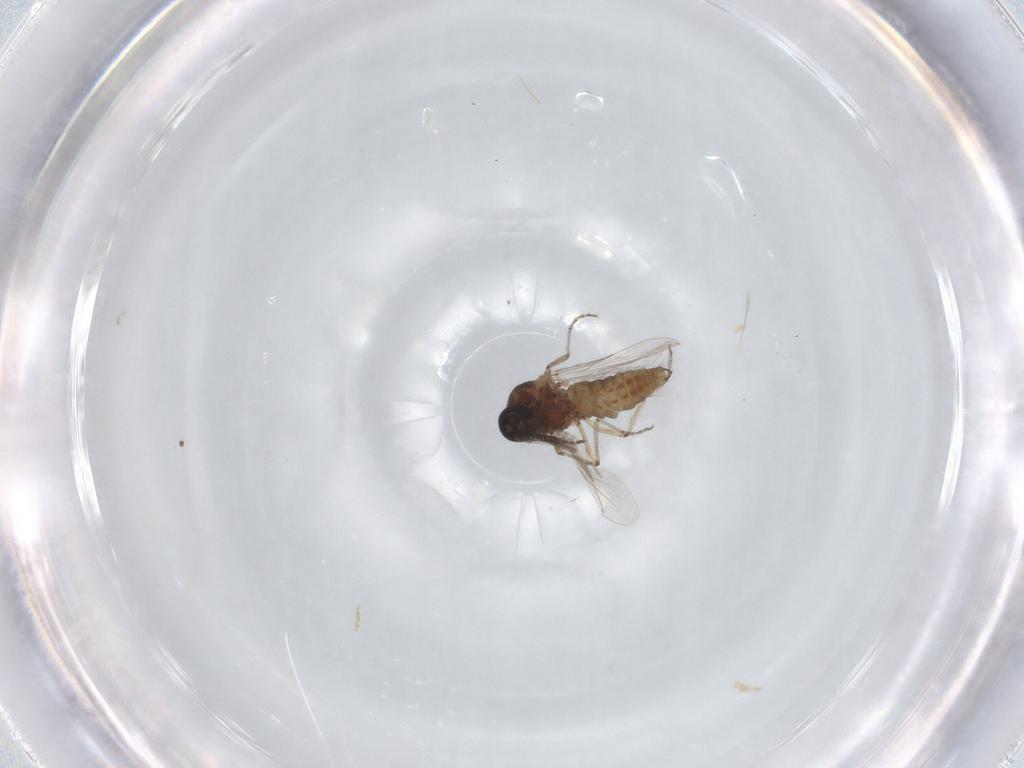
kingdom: Animalia
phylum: Arthropoda
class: Insecta
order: Diptera
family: Ceratopogonidae
